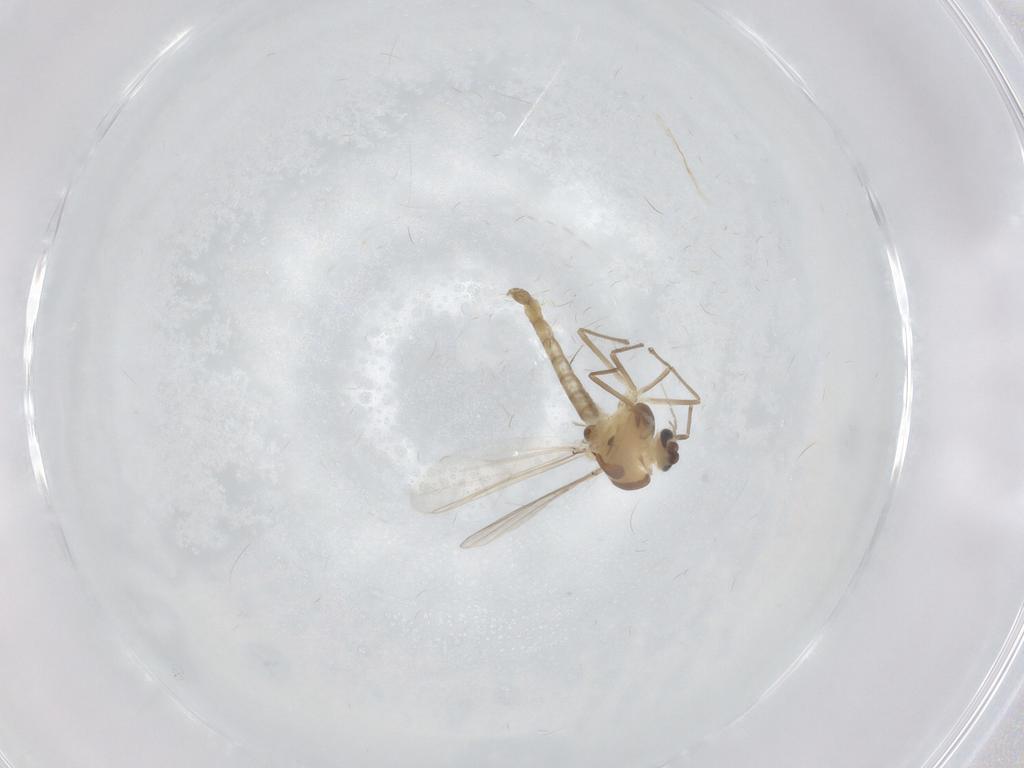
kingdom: Animalia
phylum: Arthropoda
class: Insecta
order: Diptera
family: Chironomidae
